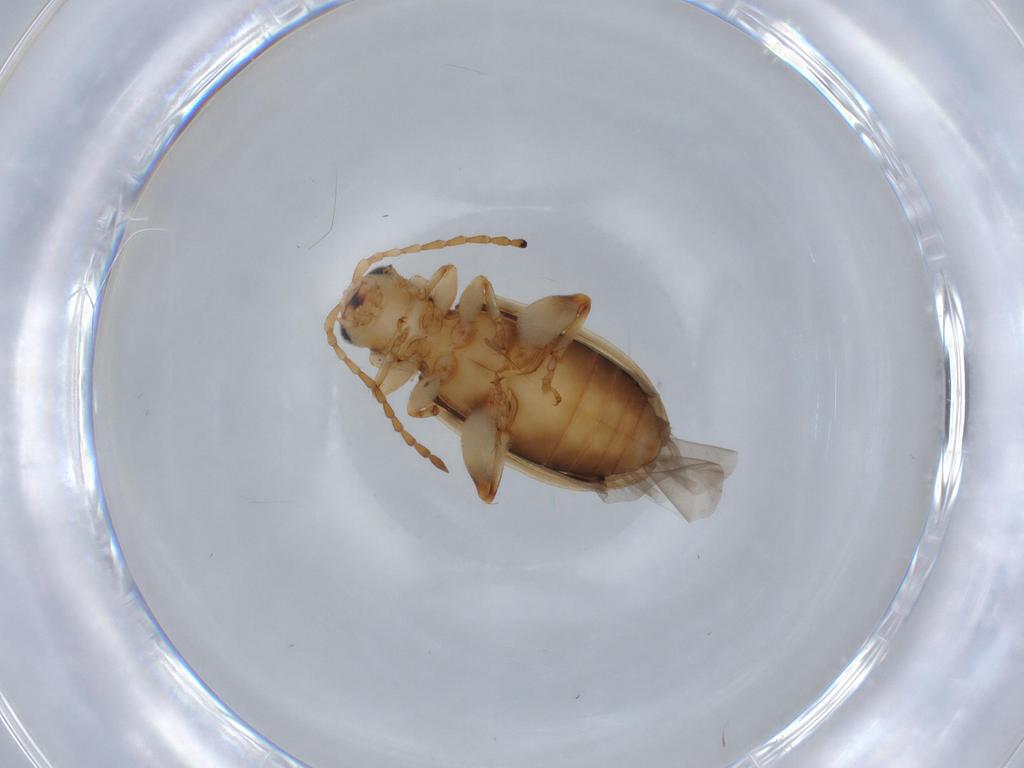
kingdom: Animalia
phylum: Arthropoda
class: Insecta
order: Coleoptera
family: Chrysomelidae
